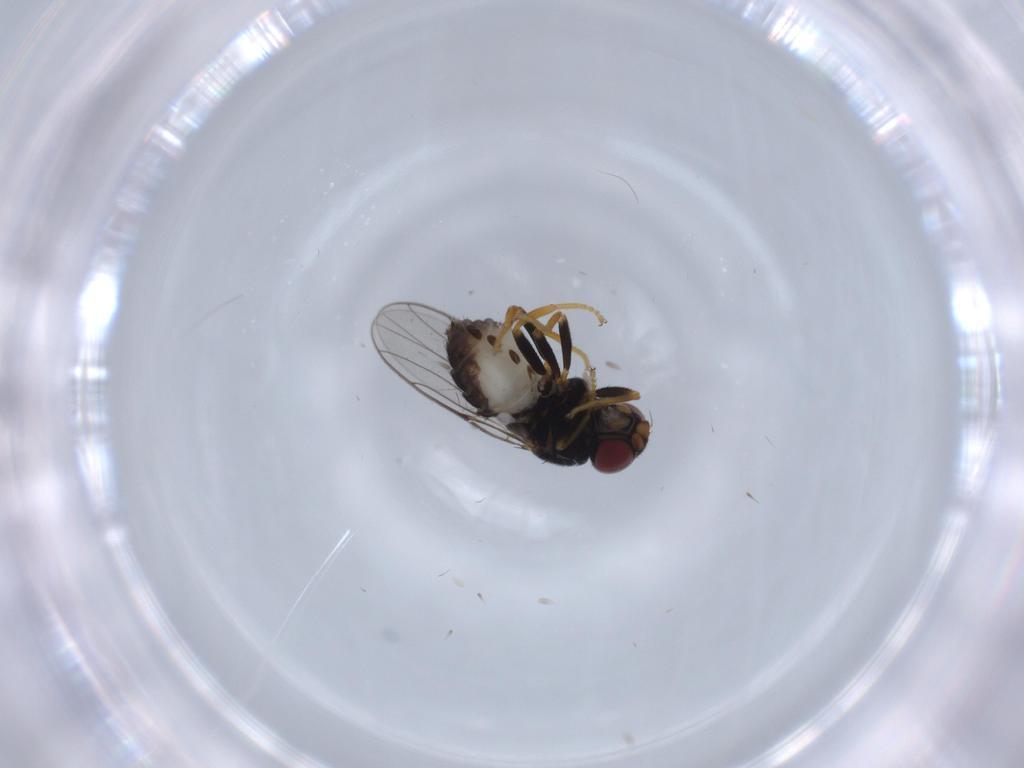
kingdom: Animalia
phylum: Arthropoda
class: Insecta
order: Diptera
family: Chloropidae
